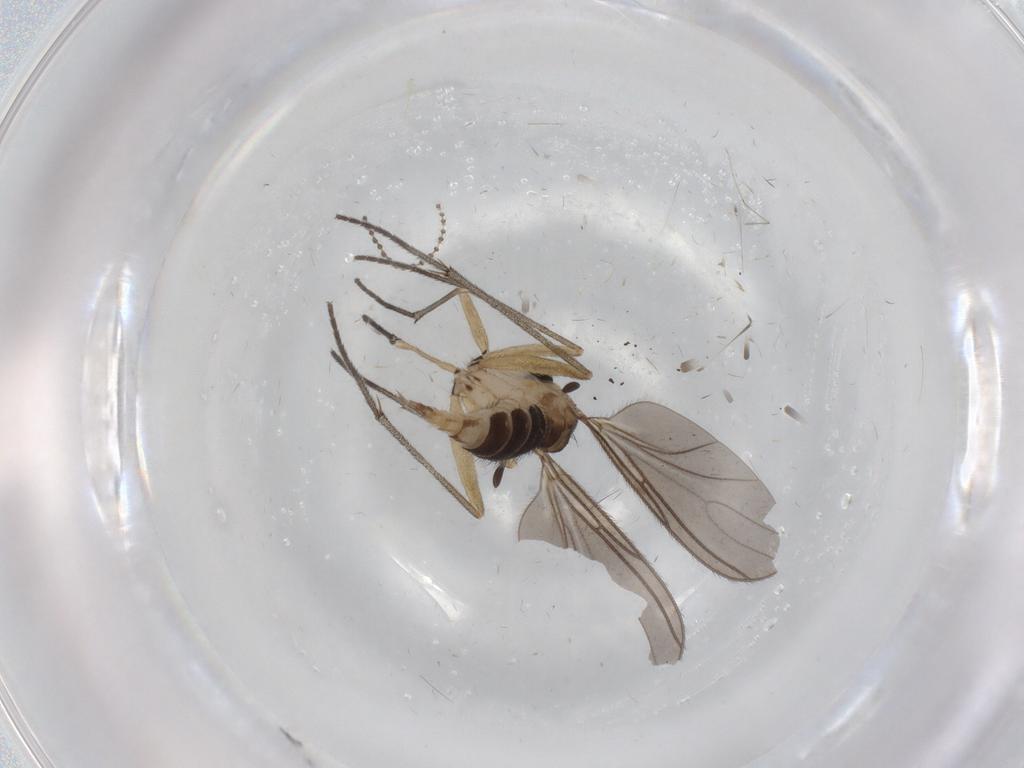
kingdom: Animalia
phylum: Arthropoda
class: Insecta
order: Diptera
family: Sciaridae
